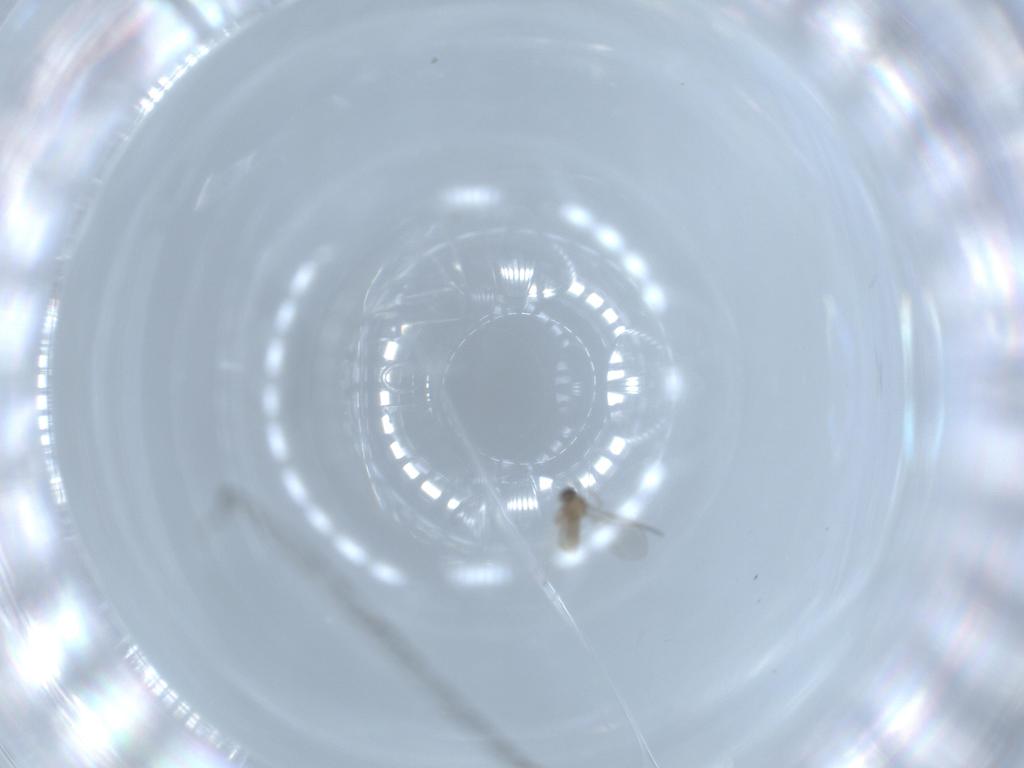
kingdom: Animalia
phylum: Arthropoda
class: Insecta
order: Diptera
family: Cecidomyiidae
